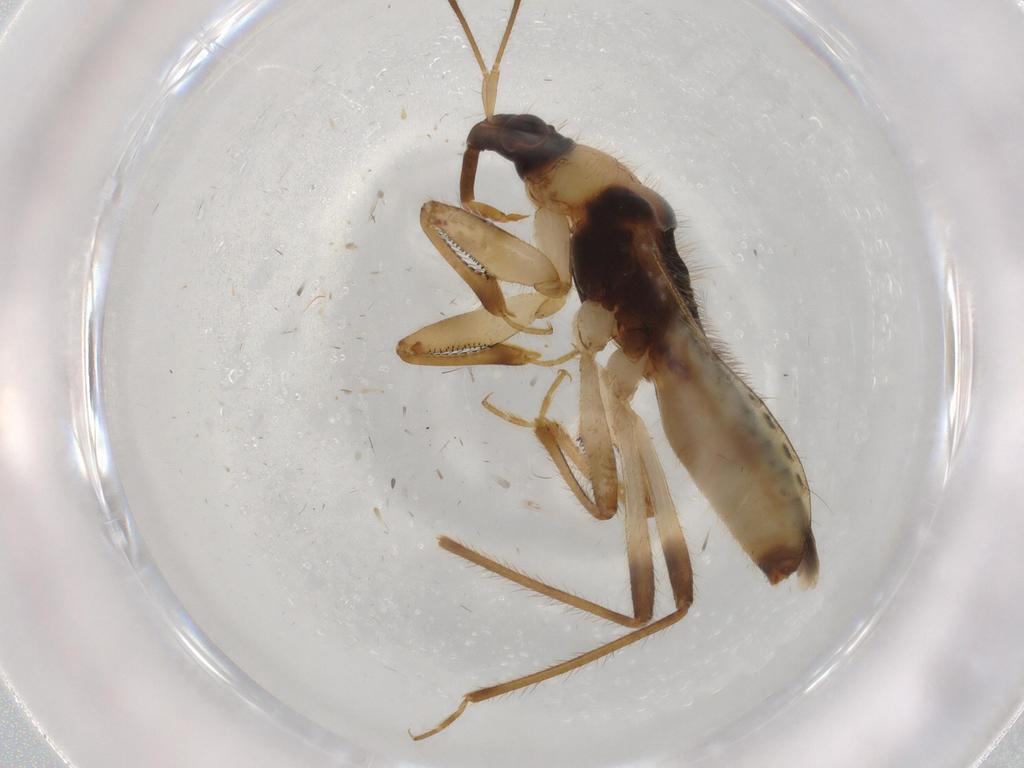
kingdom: Animalia
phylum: Arthropoda
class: Insecta
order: Hemiptera
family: Nabidae
